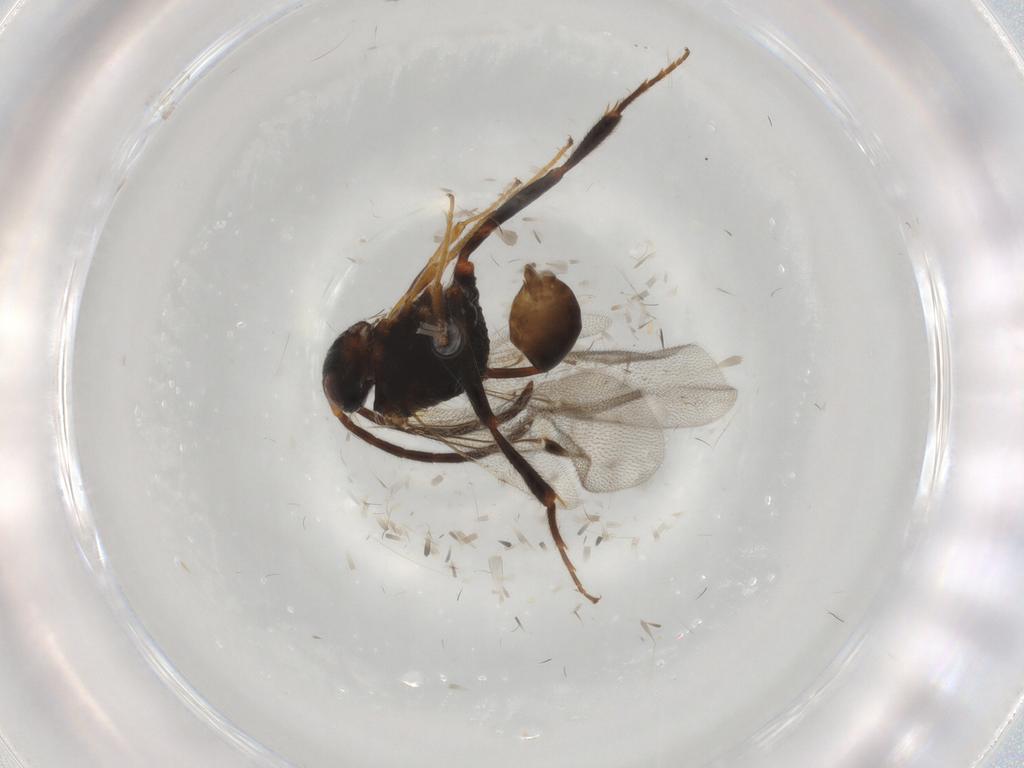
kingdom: Animalia
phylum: Arthropoda
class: Insecta
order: Hymenoptera
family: Evaniidae
